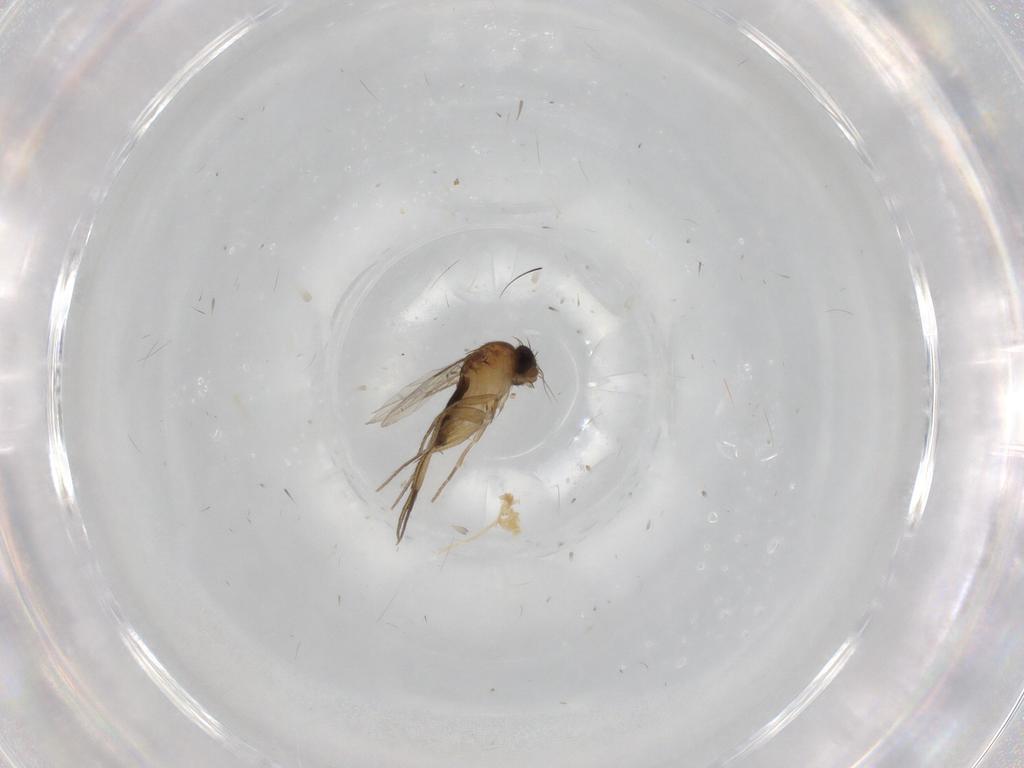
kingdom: Animalia
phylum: Arthropoda
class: Insecta
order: Diptera
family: Phoridae
